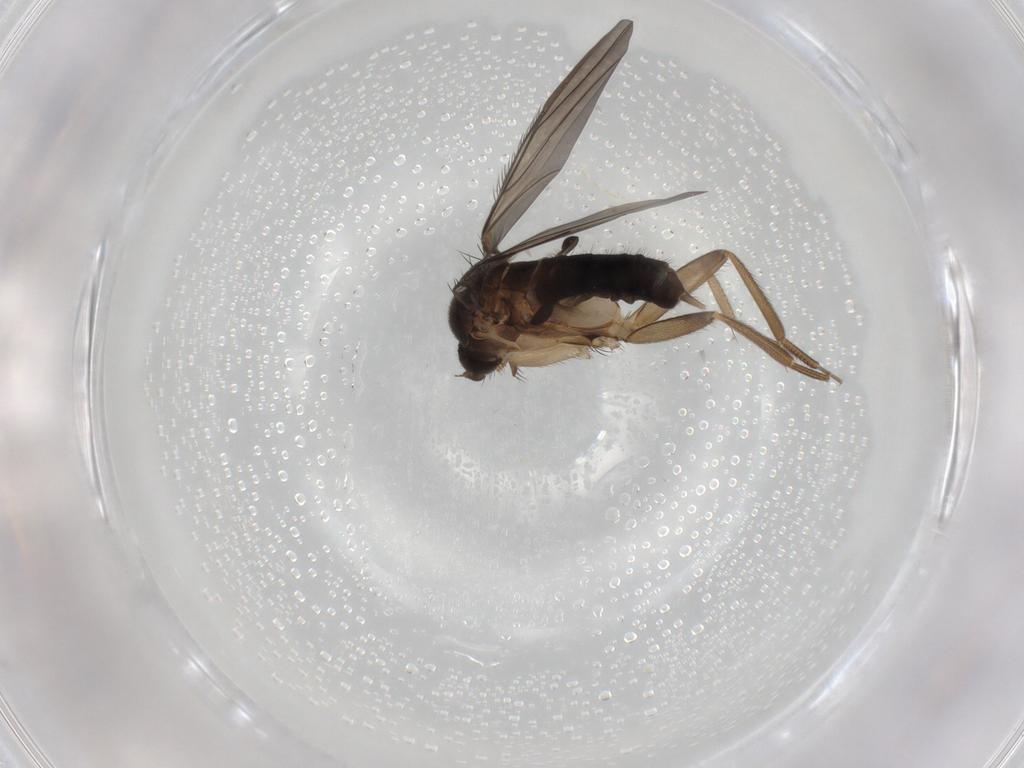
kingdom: Animalia
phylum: Arthropoda
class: Insecta
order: Diptera
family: Phoridae
